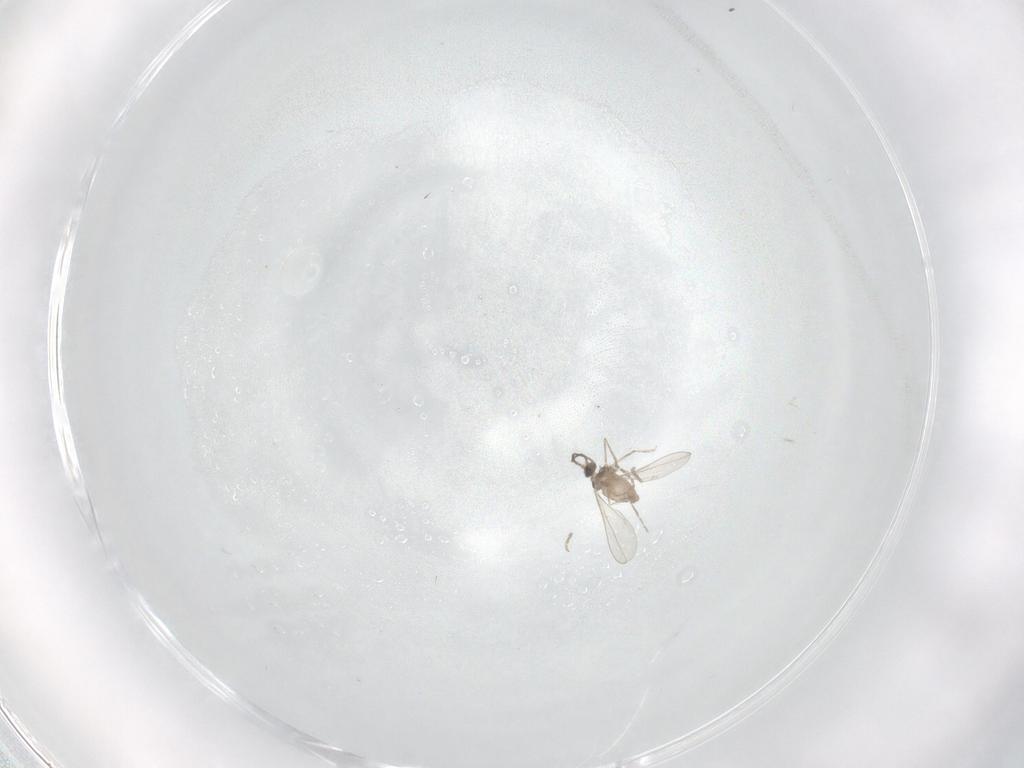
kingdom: Animalia
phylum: Arthropoda
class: Insecta
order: Diptera
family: Cecidomyiidae
